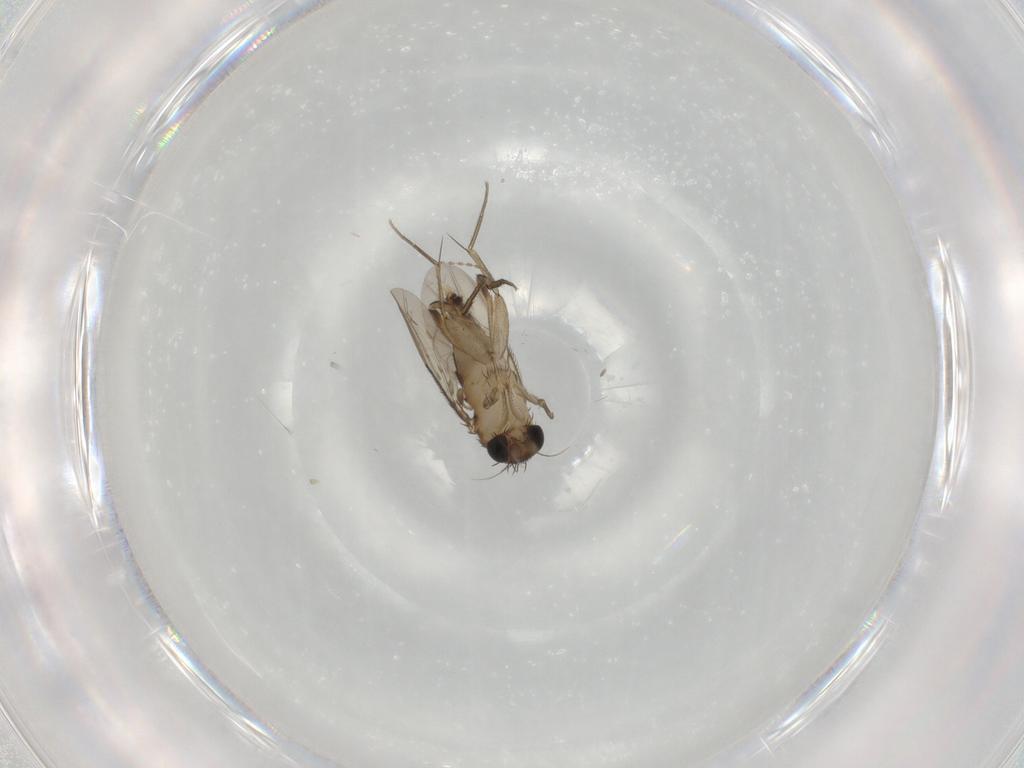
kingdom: Animalia
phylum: Arthropoda
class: Insecta
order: Diptera
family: Phoridae
